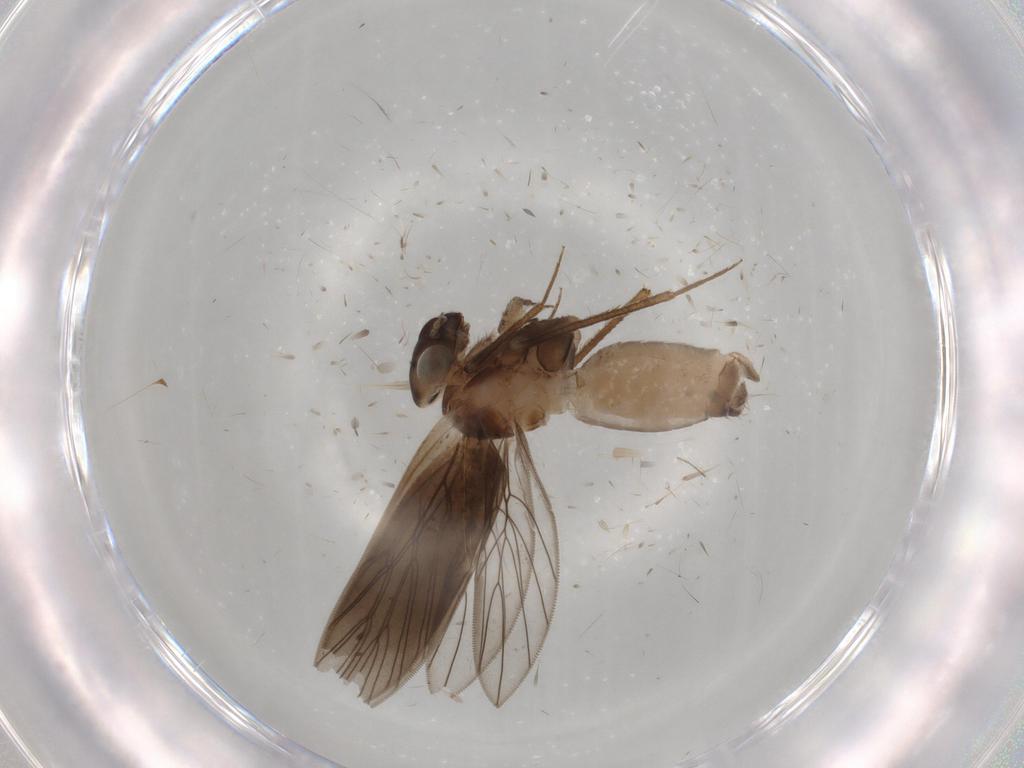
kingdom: Animalia
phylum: Arthropoda
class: Insecta
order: Psocodea
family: Lepidopsocidae
